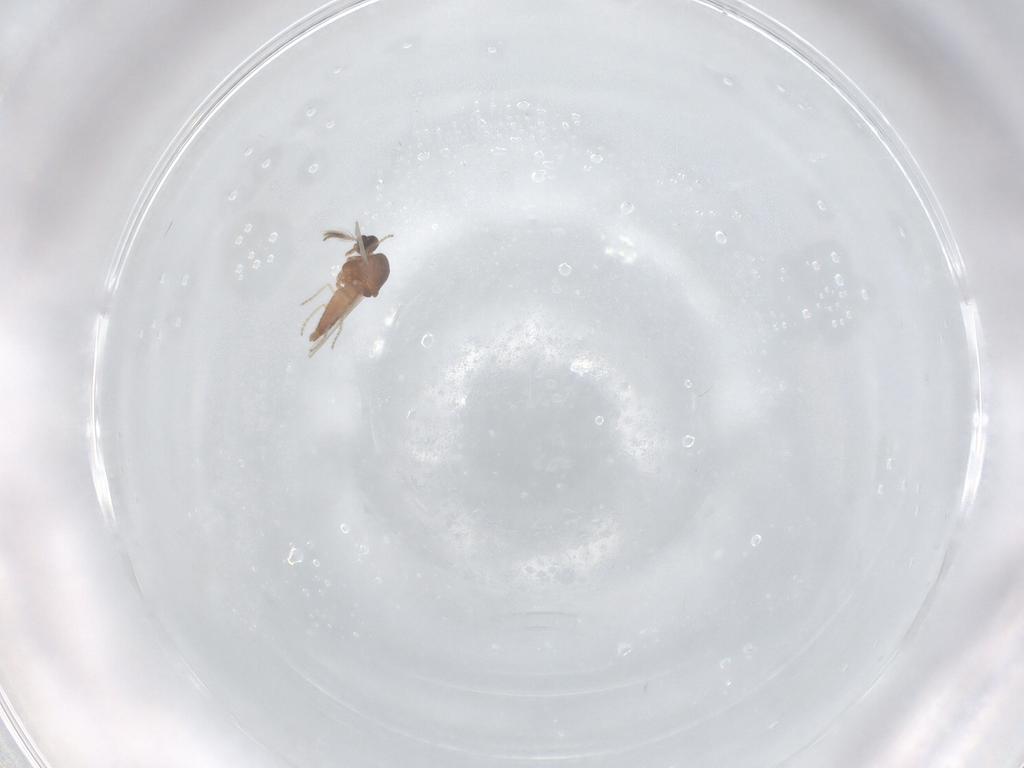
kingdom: Animalia
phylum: Arthropoda
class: Insecta
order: Diptera
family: Ceratopogonidae
